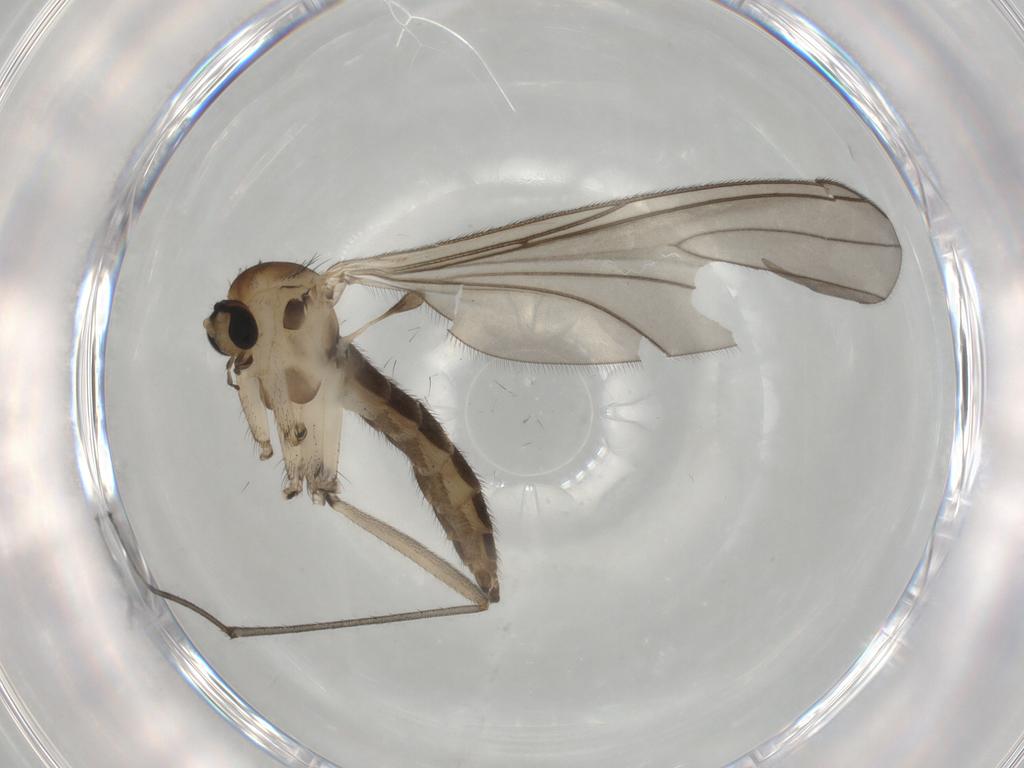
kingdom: Animalia
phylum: Arthropoda
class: Insecta
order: Diptera
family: Sciaridae
